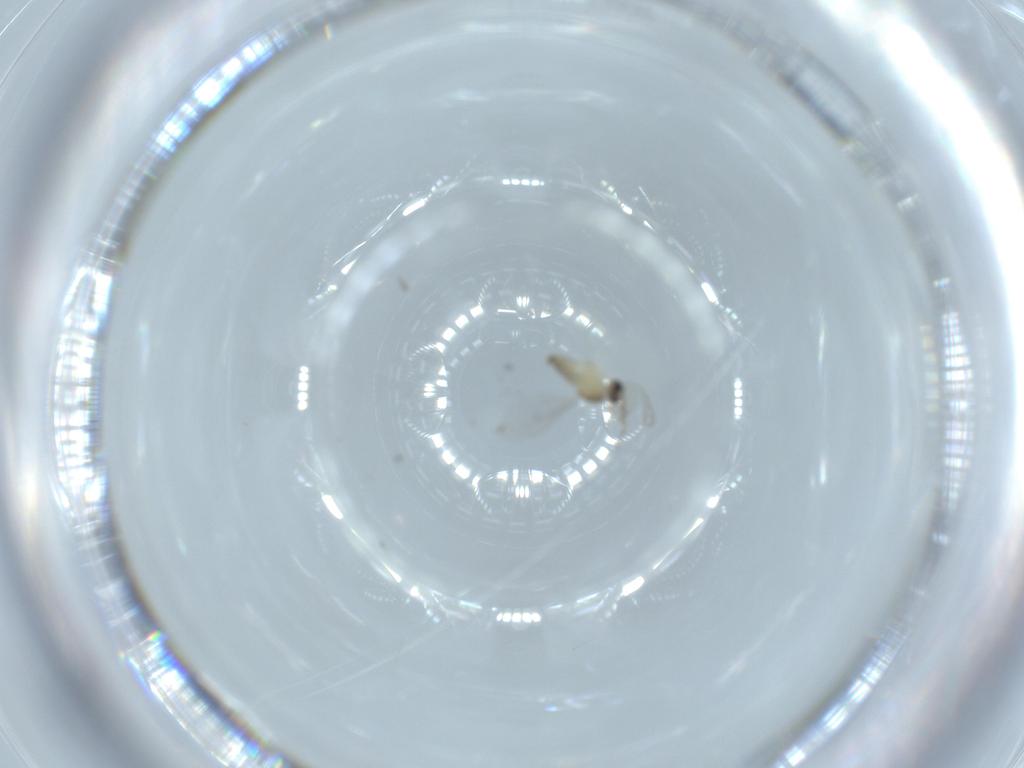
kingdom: Animalia
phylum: Arthropoda
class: Insecta
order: Diptera
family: Cecidomyiidae
